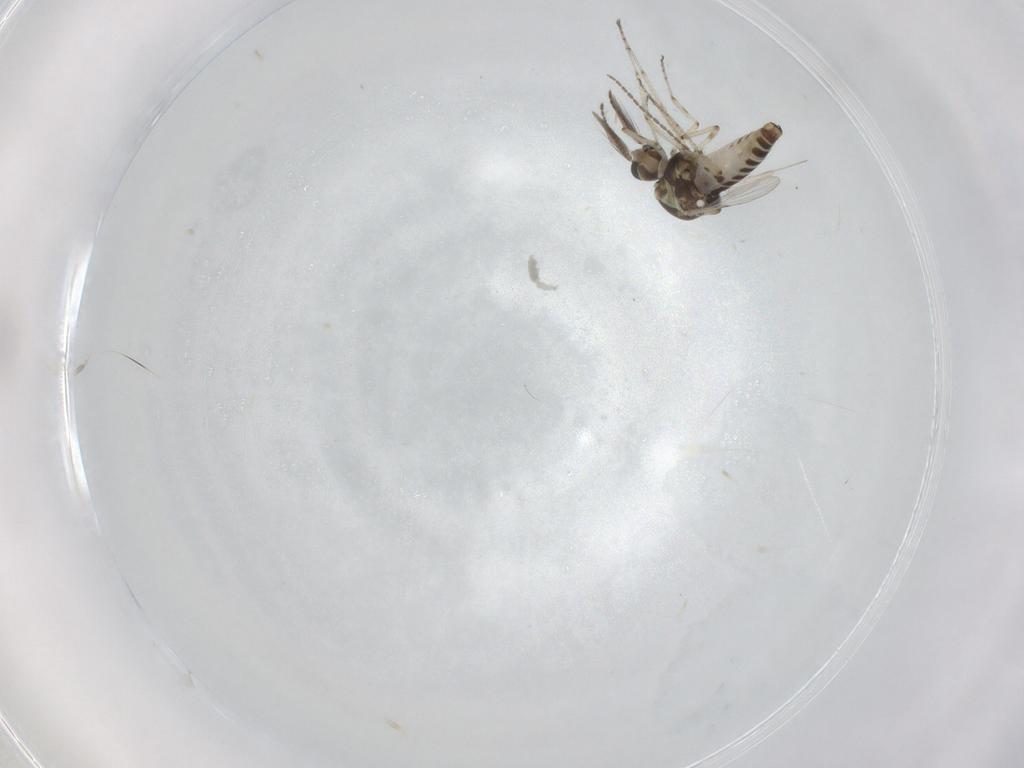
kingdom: Animalia
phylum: Arthropoda
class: Insecta
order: Diptera
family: Ceratopogonidae
